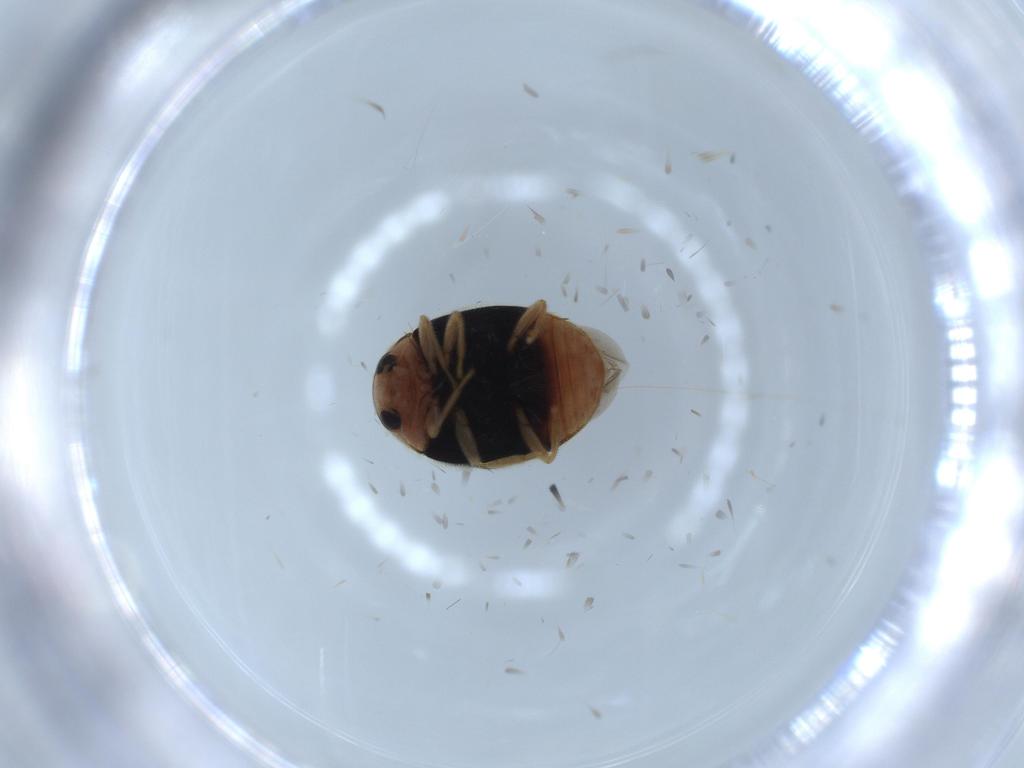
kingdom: Animalia
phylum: Arthropoda
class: Insecta
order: Coleoptera
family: Coccinellidae
